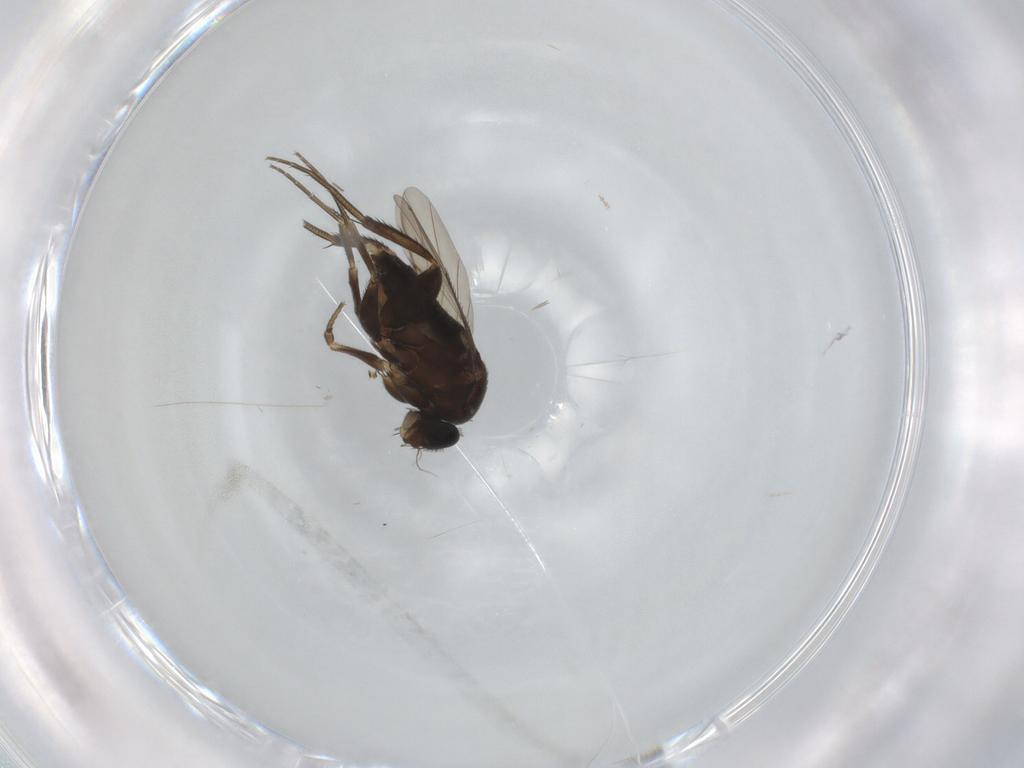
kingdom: Animalia
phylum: Arthropoda
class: Insecta
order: Diptera
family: Phoridae
